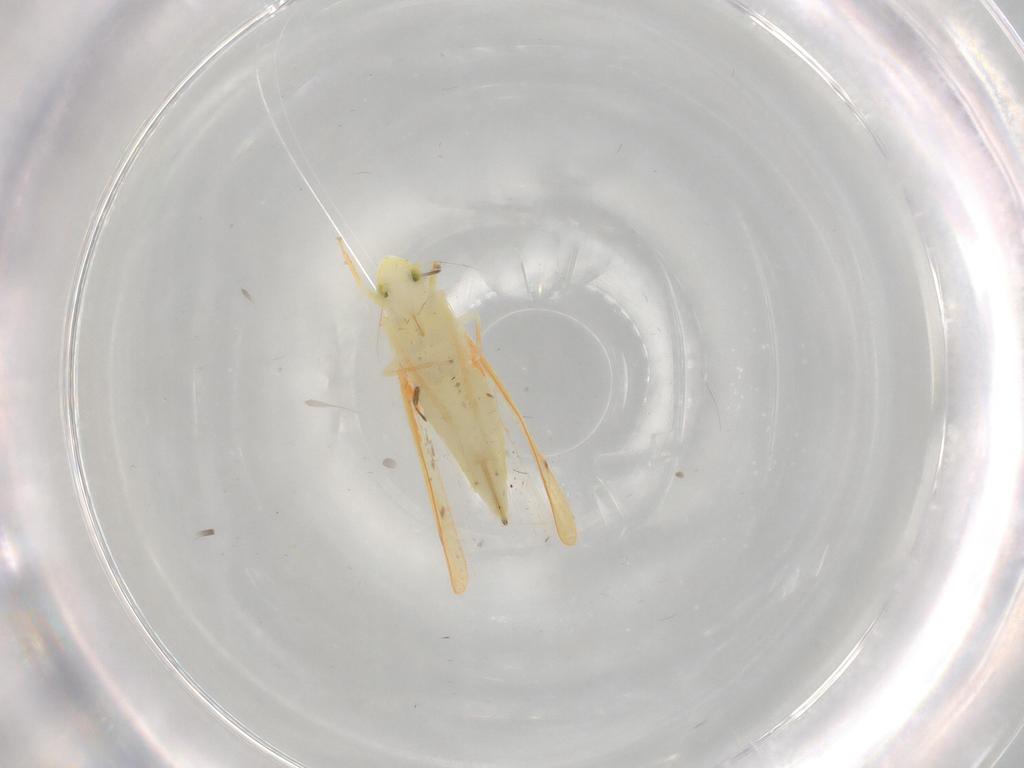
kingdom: Animalia
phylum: Arthropoda
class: Insecta
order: Hemiptera
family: Cicadellidae
